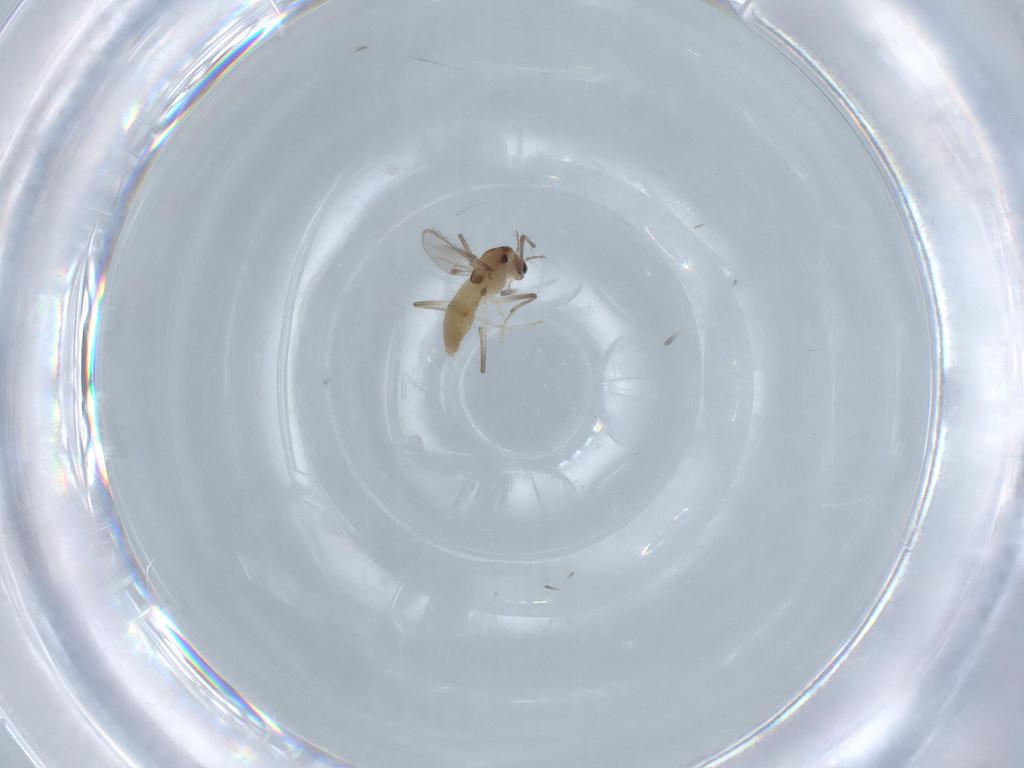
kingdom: Animalia
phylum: Arthropoda
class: Insecta
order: Diptera
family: Chironomidae
